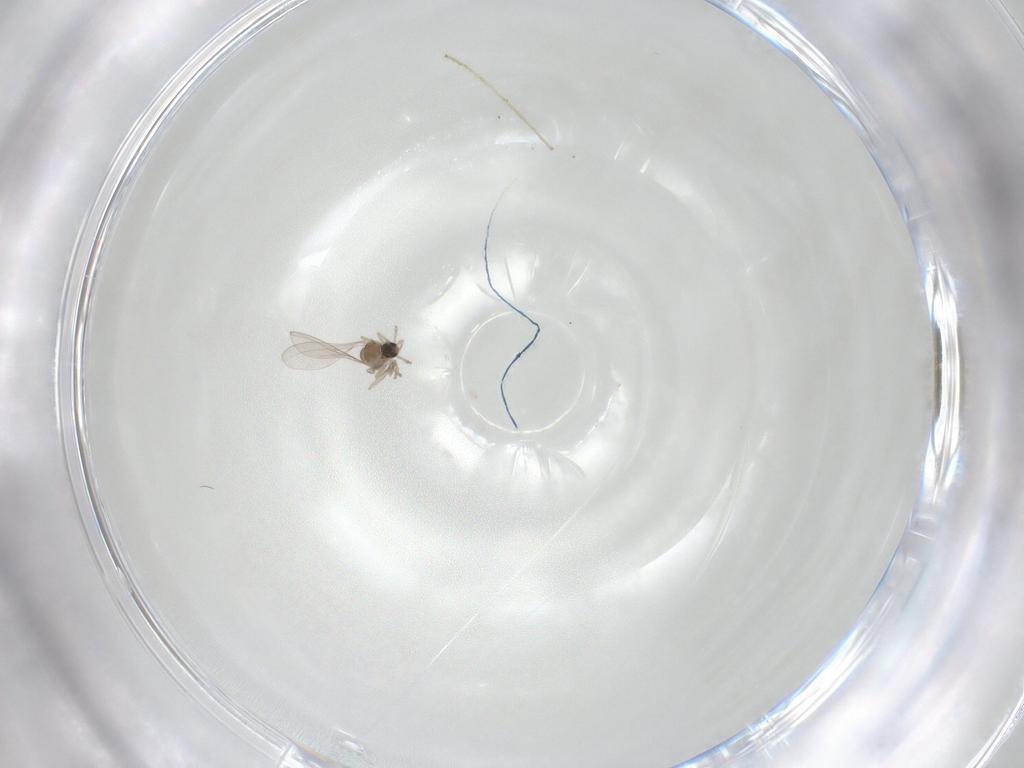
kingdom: Animalia
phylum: Arthropoda
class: Insecta
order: Diptera
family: Cecidomyiidae
